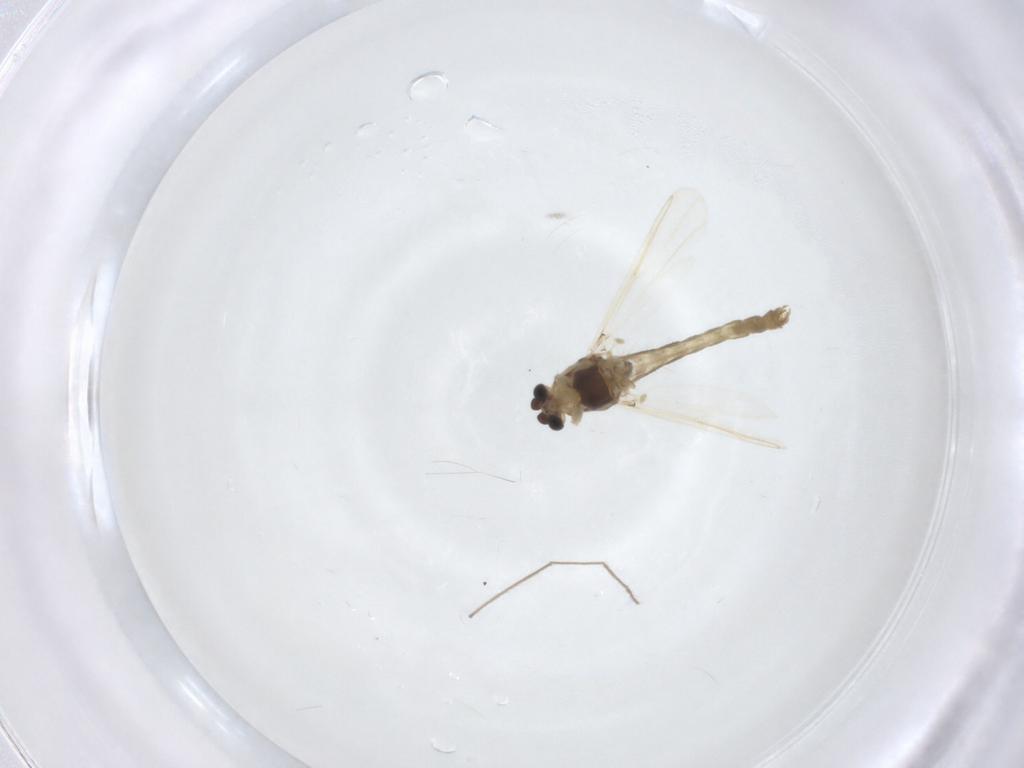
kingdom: Animalia
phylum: Arthropoda
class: Insecta
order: Diptera
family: Chironomidae
